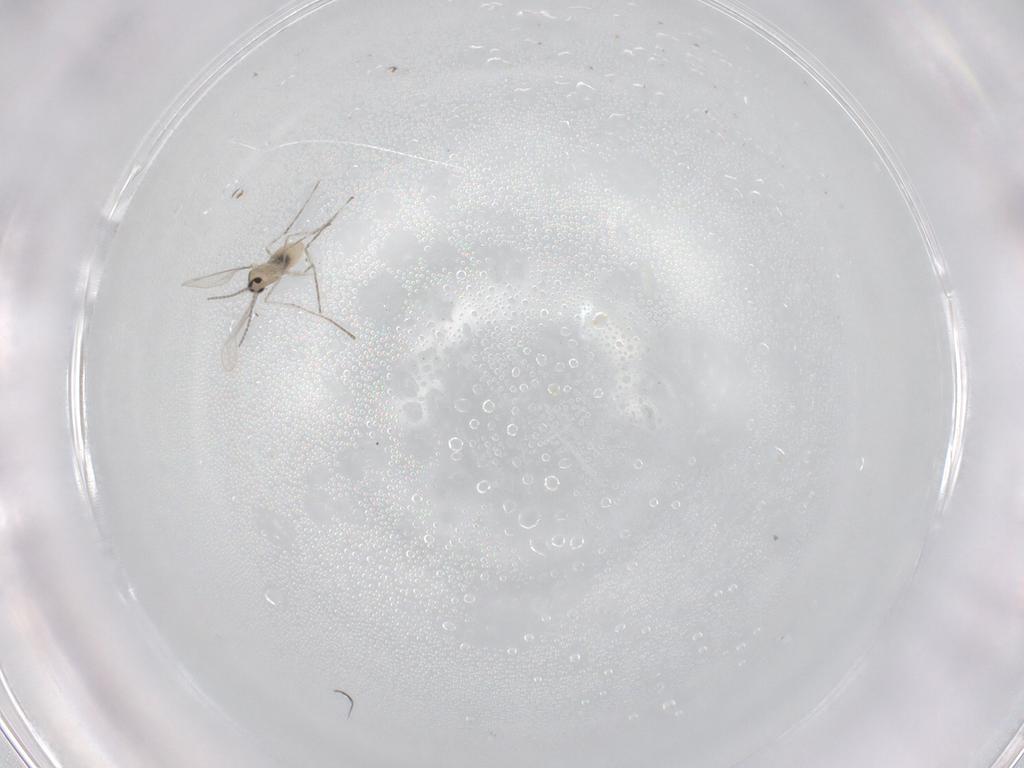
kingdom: Animalia
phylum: Arthropoda
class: Insecta
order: Diptera
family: Cecidomyiidae
